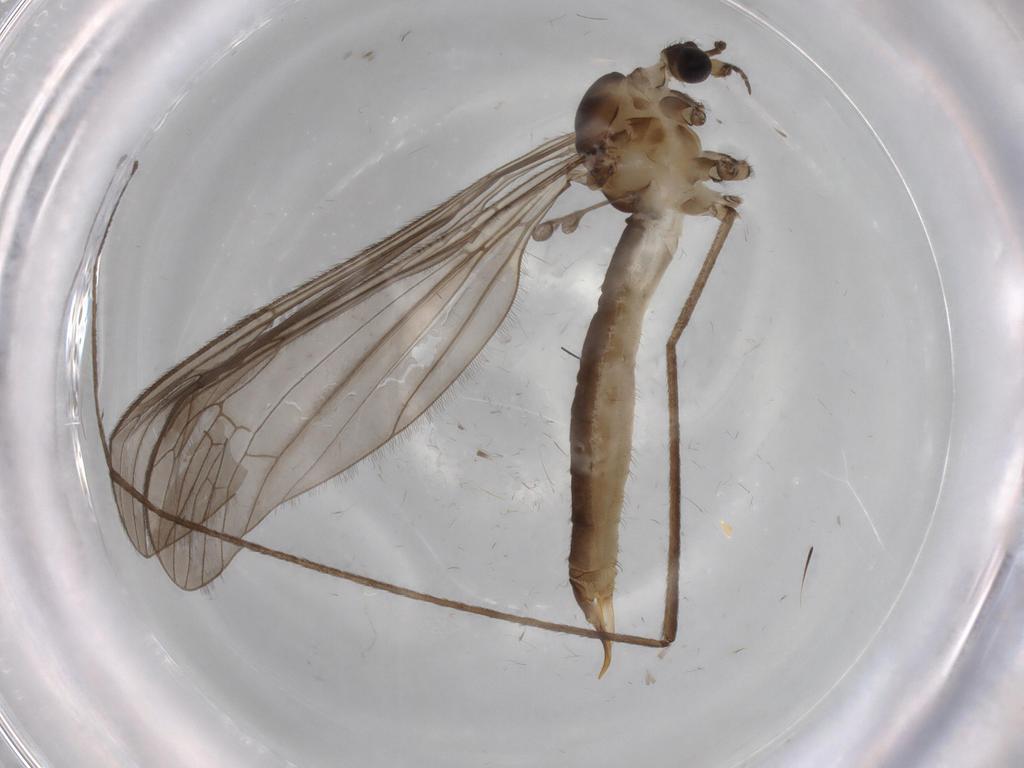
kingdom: Animalia
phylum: Arthropoda
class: Insecta
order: Diptera
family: Limoniidae
